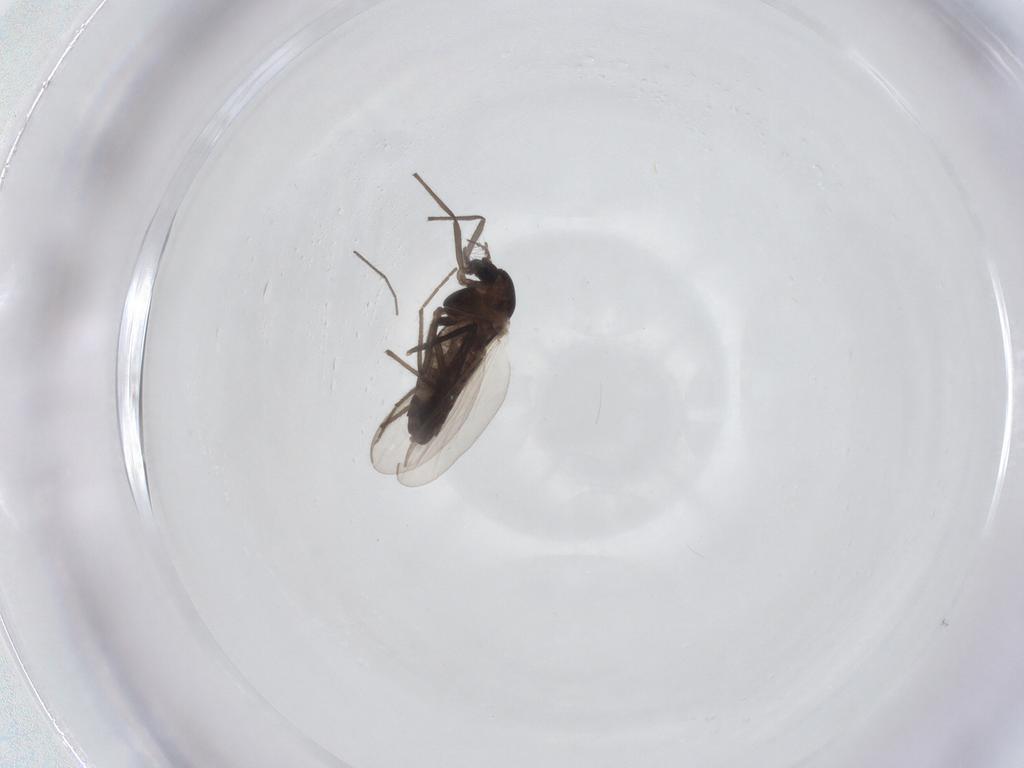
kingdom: Animalia
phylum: Arthropoda
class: Insecta
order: Diptera
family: Chironomidae
